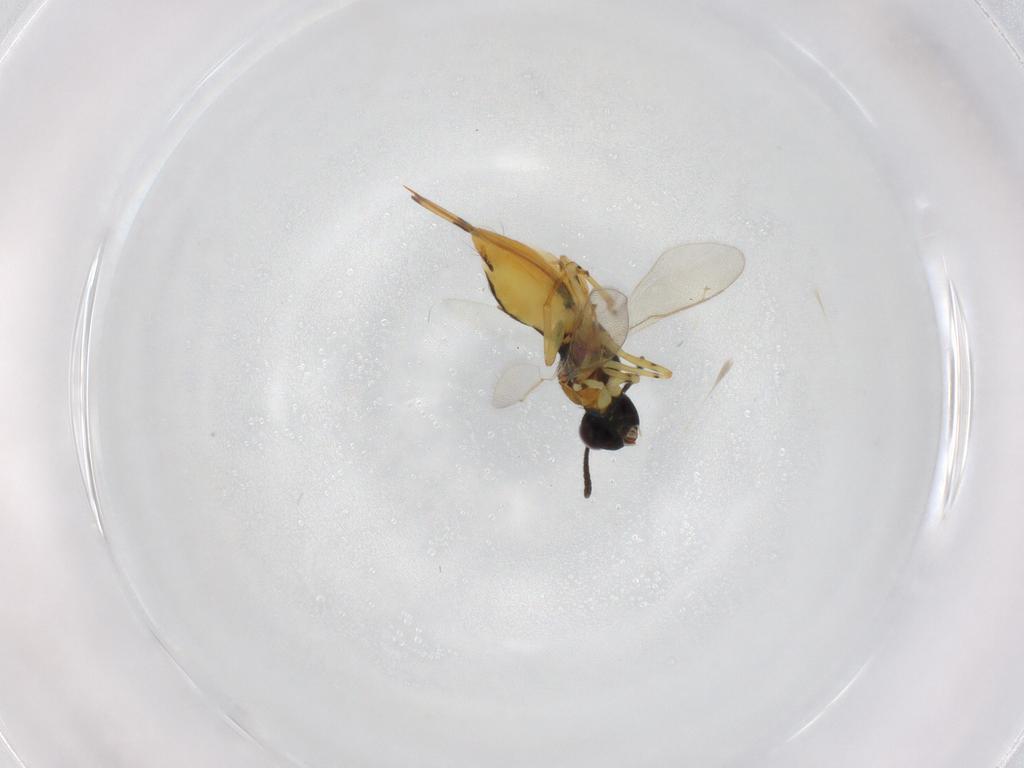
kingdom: Animalia
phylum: Arthropoda
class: Insecta
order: Hymenoptera
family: Eupelmidae
